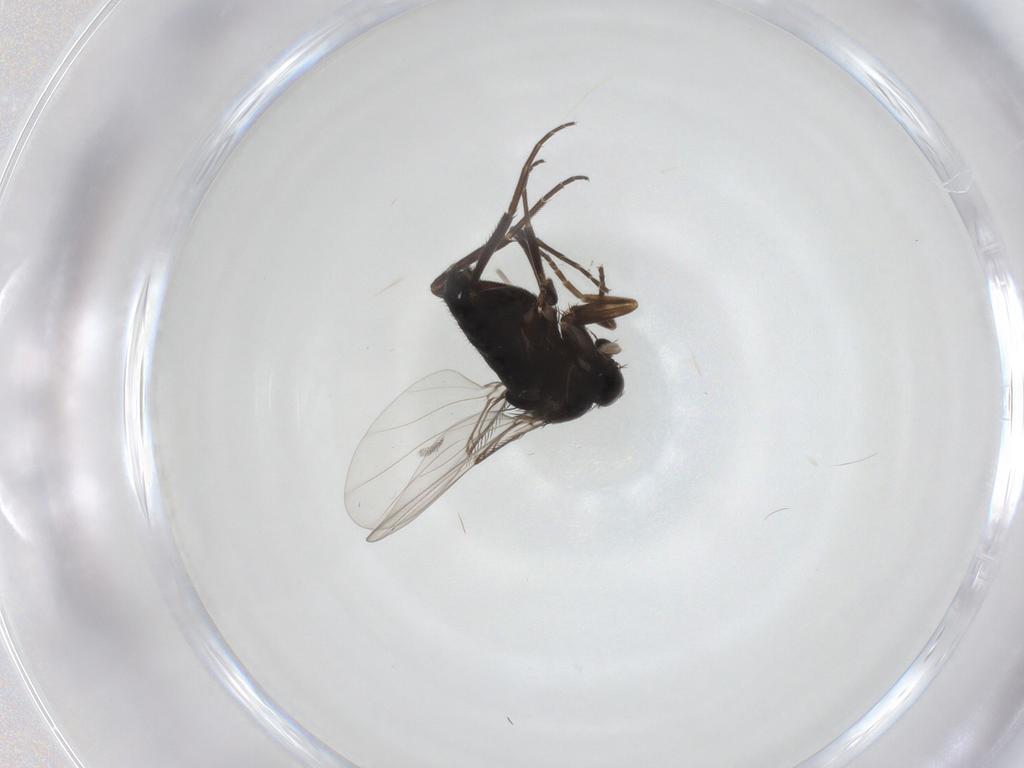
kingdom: Animalia
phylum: Arthropoda
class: Insecta
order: Diptera
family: Phoridae
